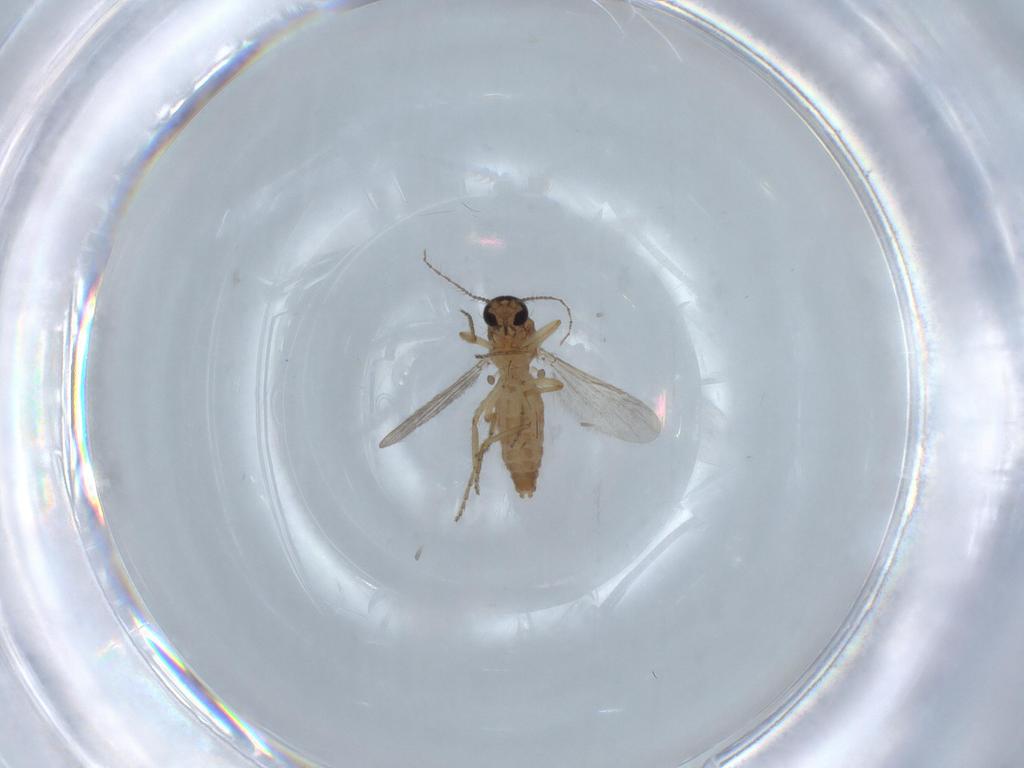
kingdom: Animalia
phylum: Arthropoda
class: Insecta
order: Diptera
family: Ceratopogonidae
